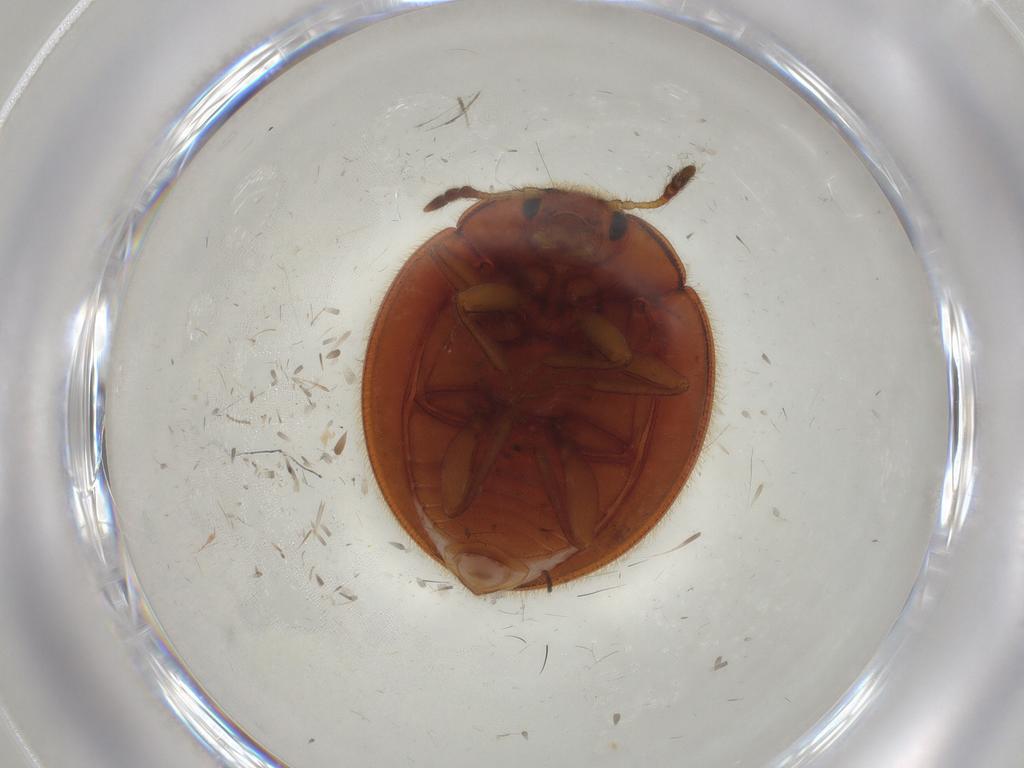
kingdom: Animalia
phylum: Arthropoda
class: Insecta
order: Coleoptera
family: Anamorphidae
